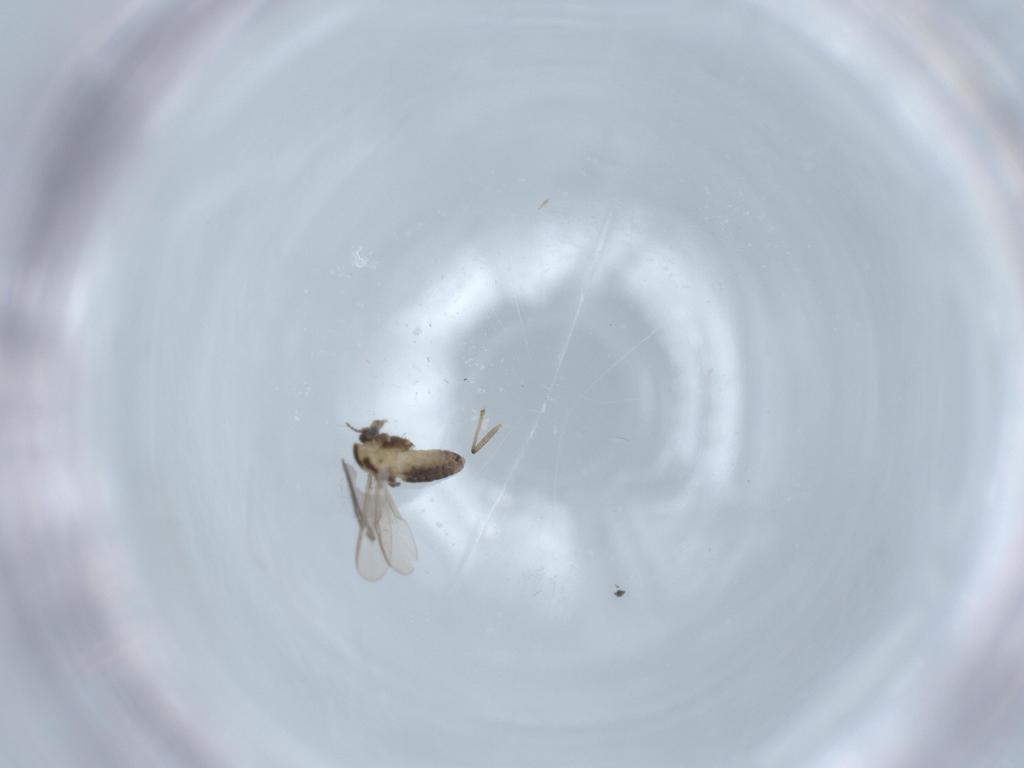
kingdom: Animalia
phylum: Arthropoda
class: Insecta
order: Diptera
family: Chironomidae
